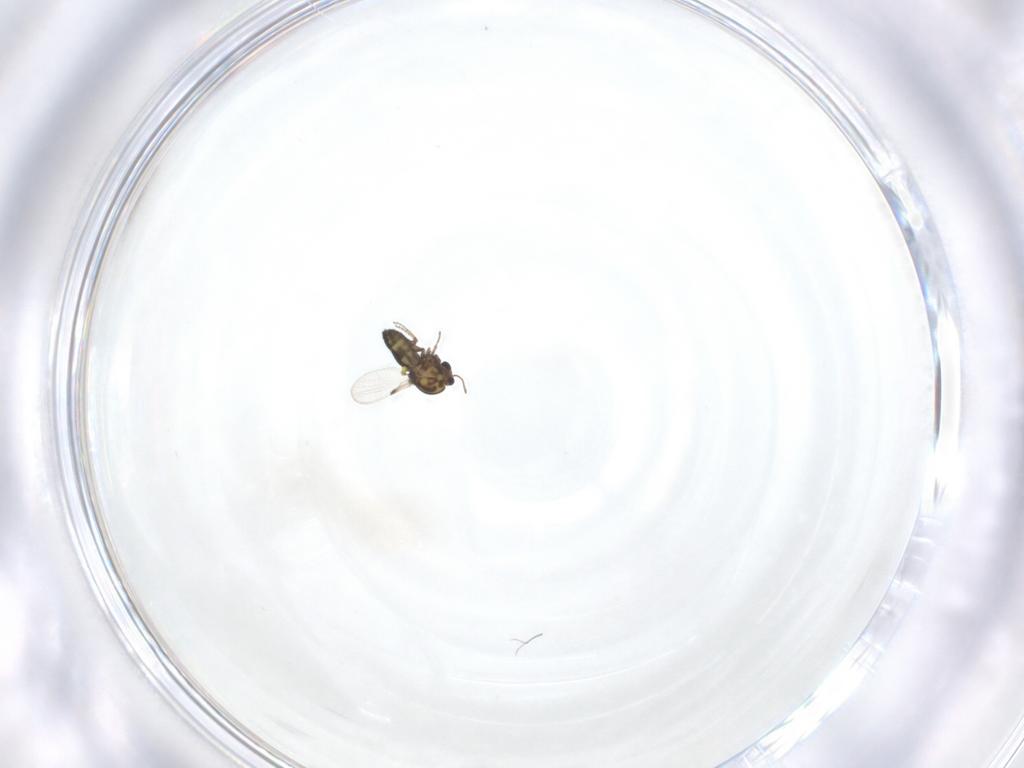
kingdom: Animalia
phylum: Arthropoda
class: Insecta
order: Diptera
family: Ceratopogonidae
